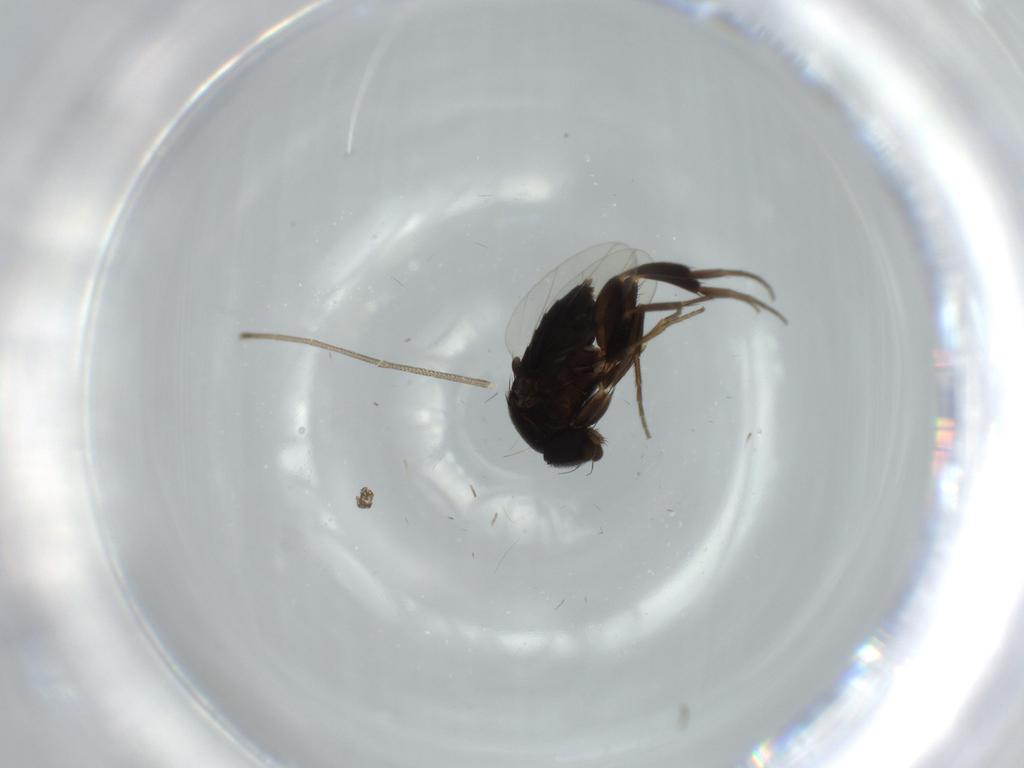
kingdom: Animalia
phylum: Arthropoda
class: Insecta
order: Diptera
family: Phoridae
